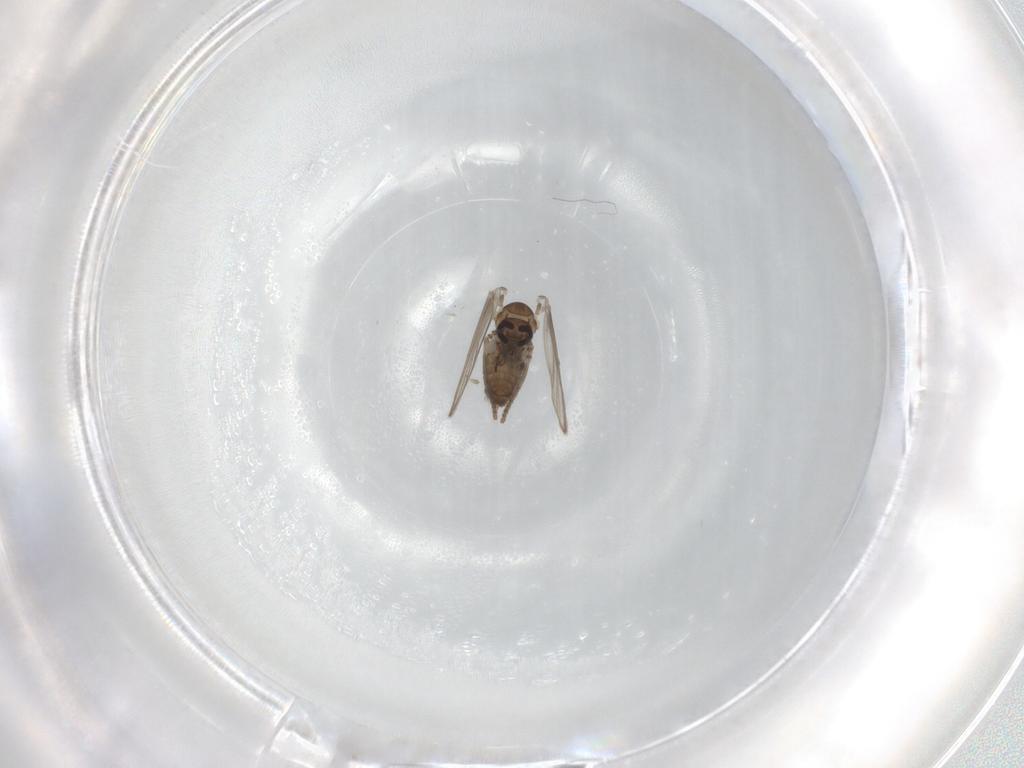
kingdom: Animalia
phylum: Arthropoda
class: Insecta
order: Diptera
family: Psychodidae
